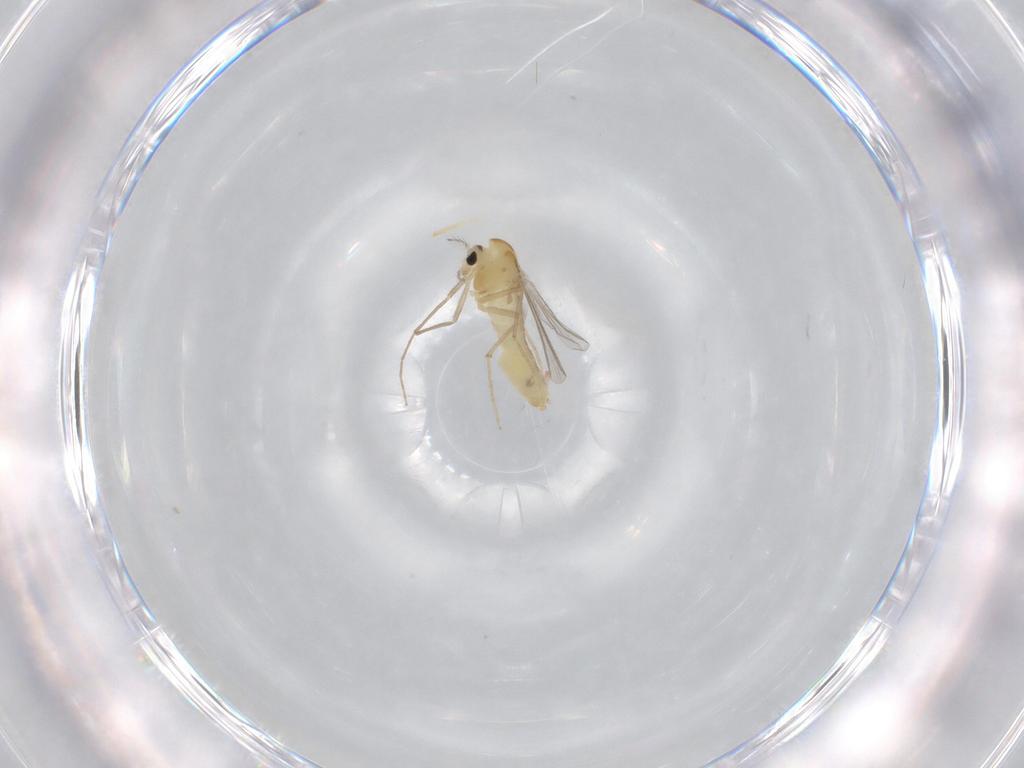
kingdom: Animalia
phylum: Arthropoda
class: Insecta
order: Diptera
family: Chironomidae
